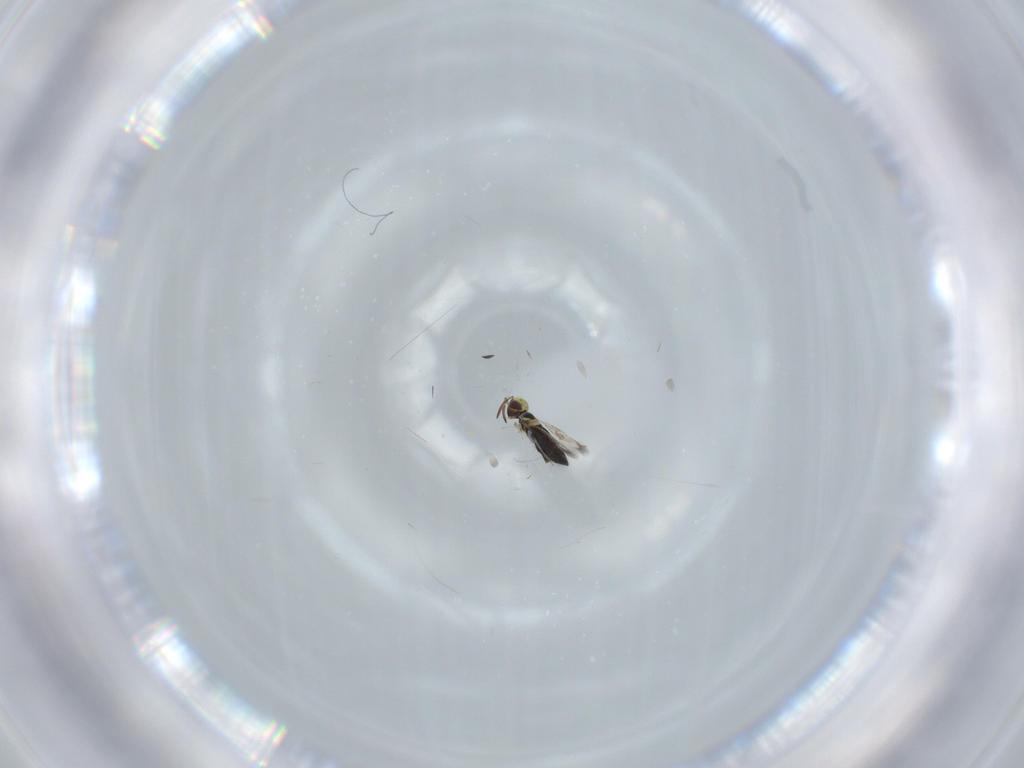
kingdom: Animalia
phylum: Arthropoda
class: Insecta
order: Hymenoptera
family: Signiphoridae
